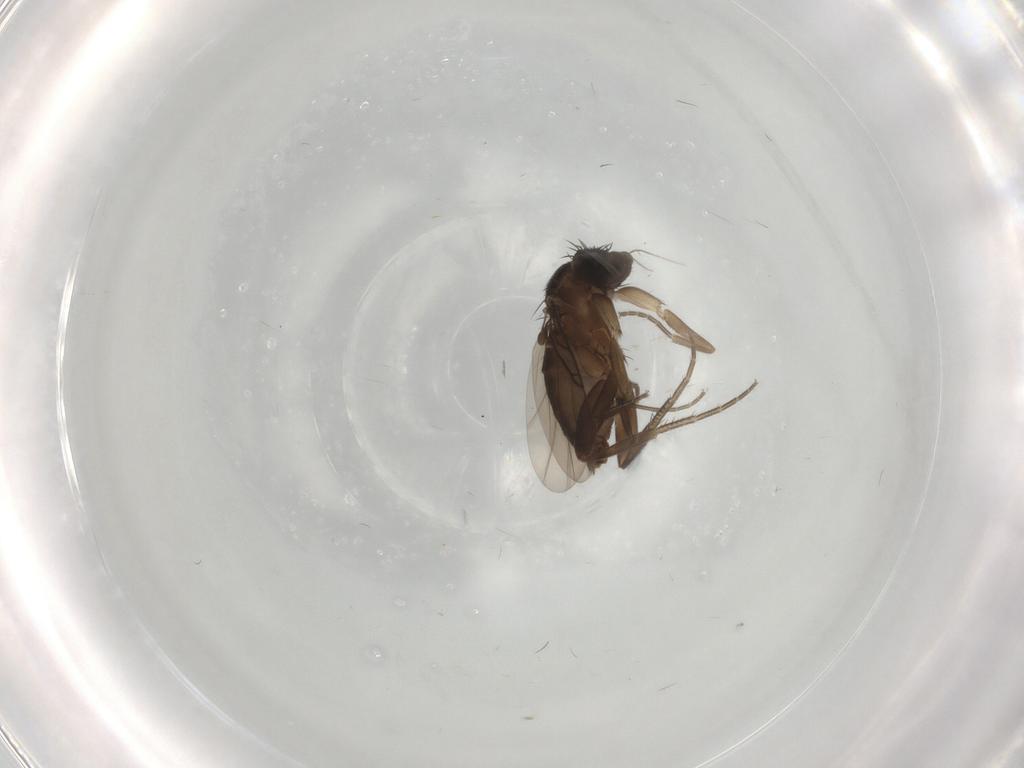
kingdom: Animalia
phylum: Arthropoda
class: Insecta
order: Diptera
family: Phoridae
